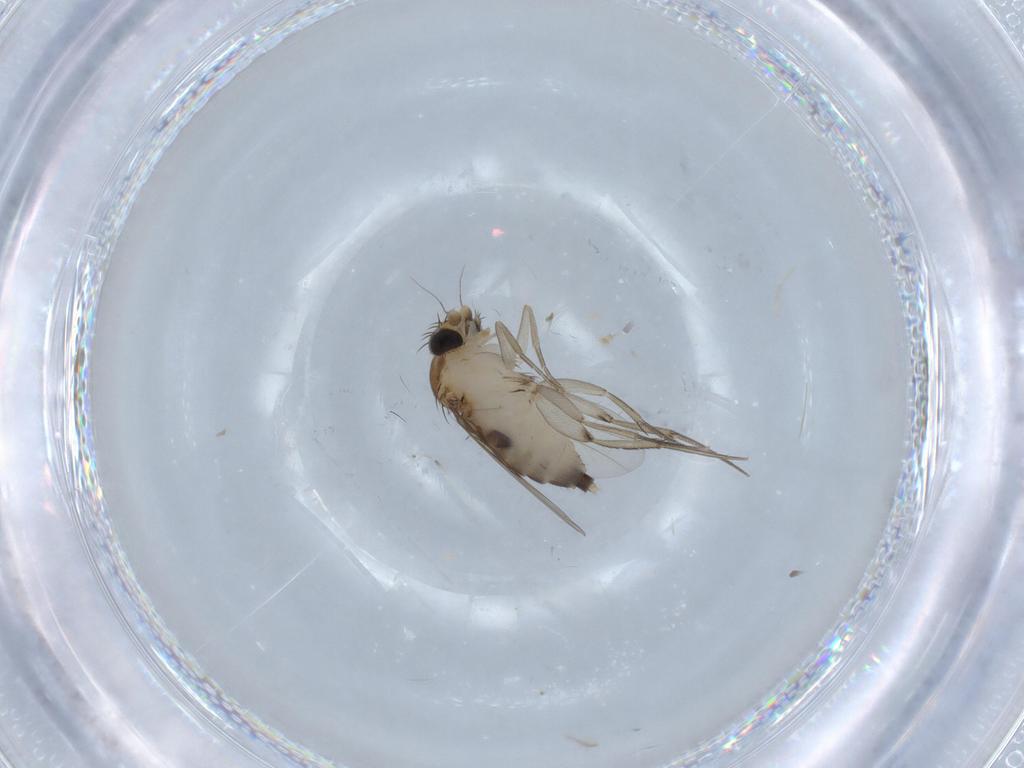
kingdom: Animalia
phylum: Arthropoda
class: Insecta
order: Diptera
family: Chironomidae
